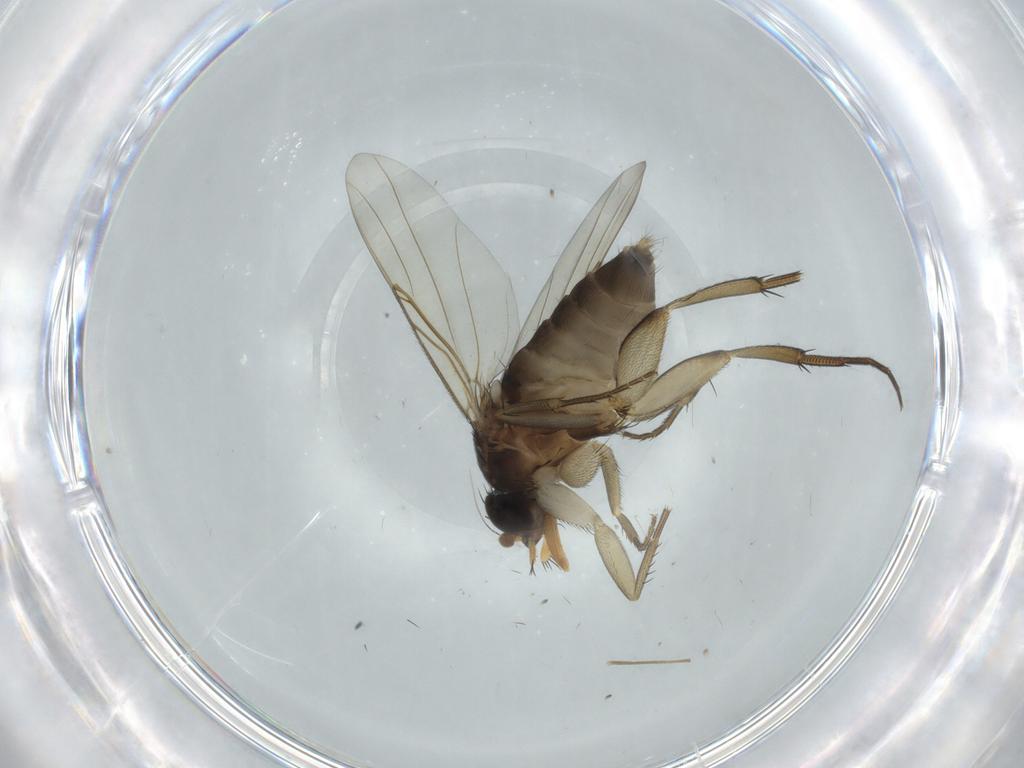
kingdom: Animalia
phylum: Arthropoda
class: Insecta
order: Diptera
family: Phoridae
